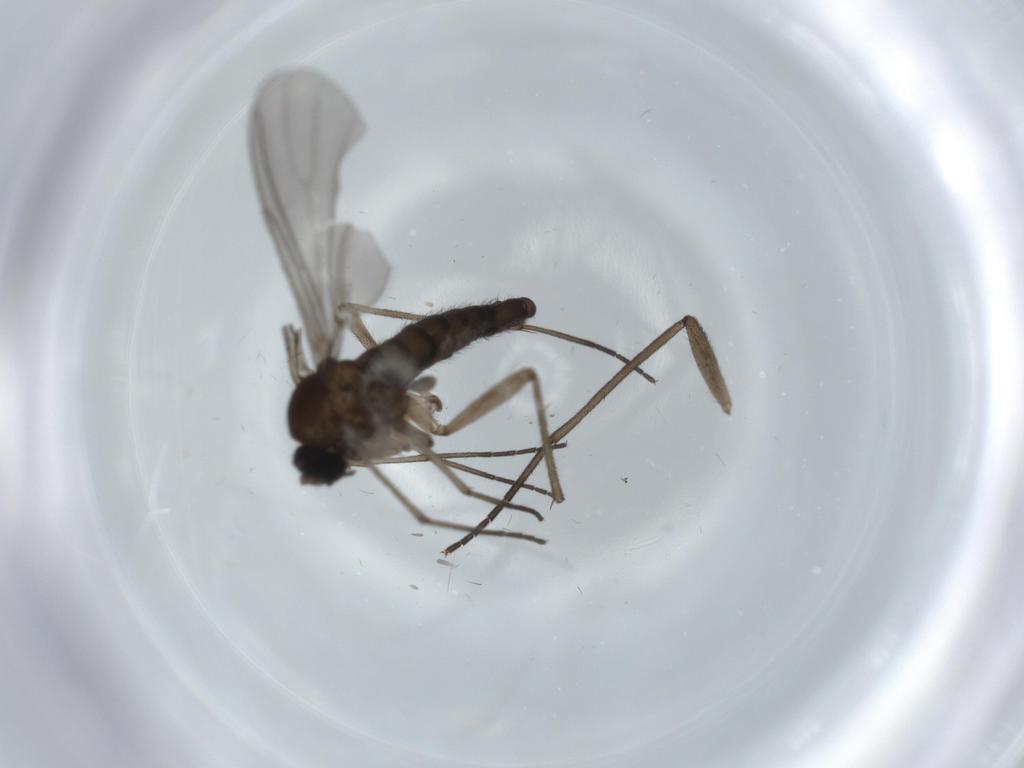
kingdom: Animalia
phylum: Arthropoda
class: Insecta
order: Diptera
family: Sciaridae
